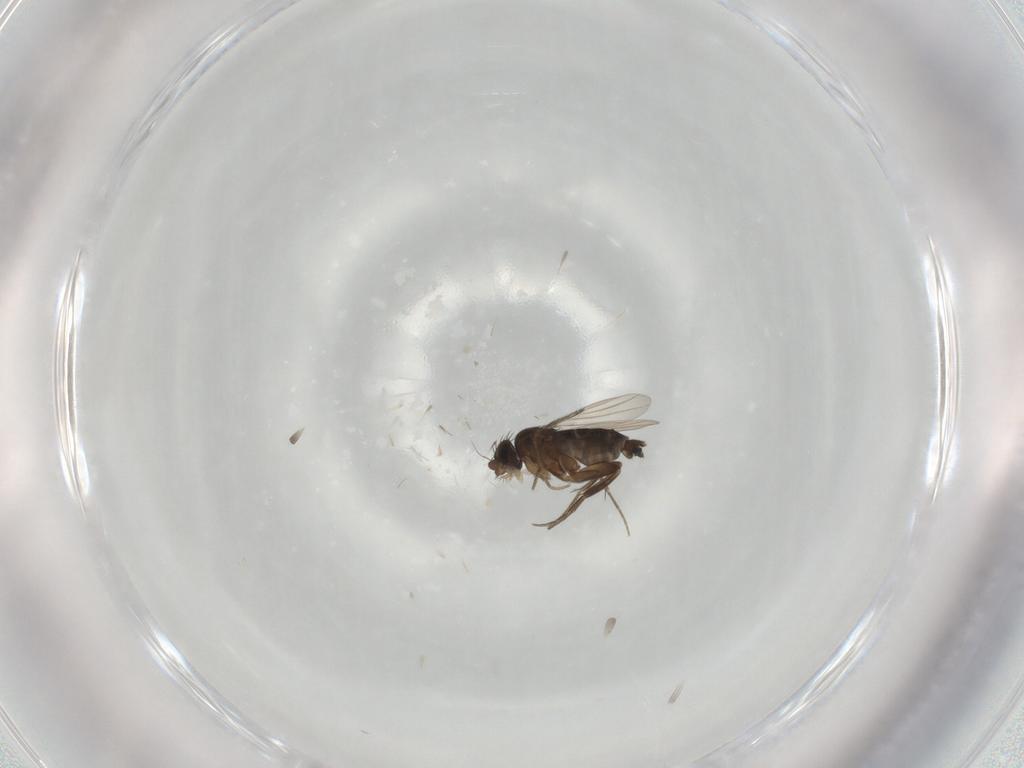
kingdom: Animalia
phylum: Arthropoda
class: Insecta
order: Diptera
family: Phoridae
